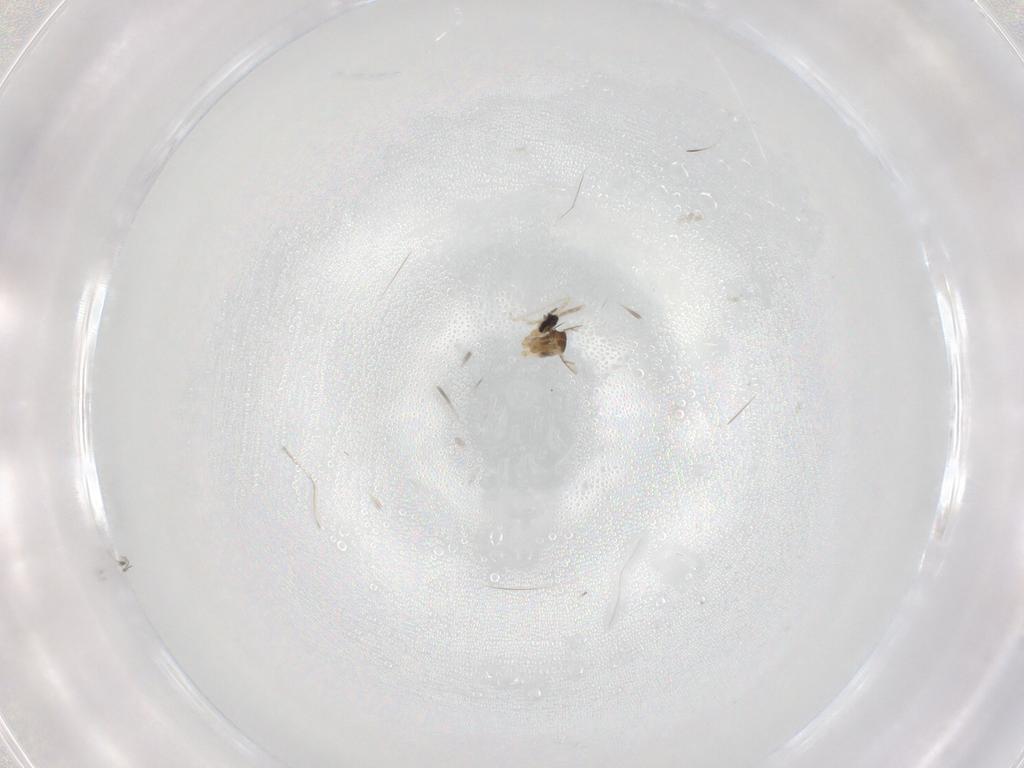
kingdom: Animalia
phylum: Arthropoda
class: Insecta
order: Diptera
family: Cecidomyiidae
